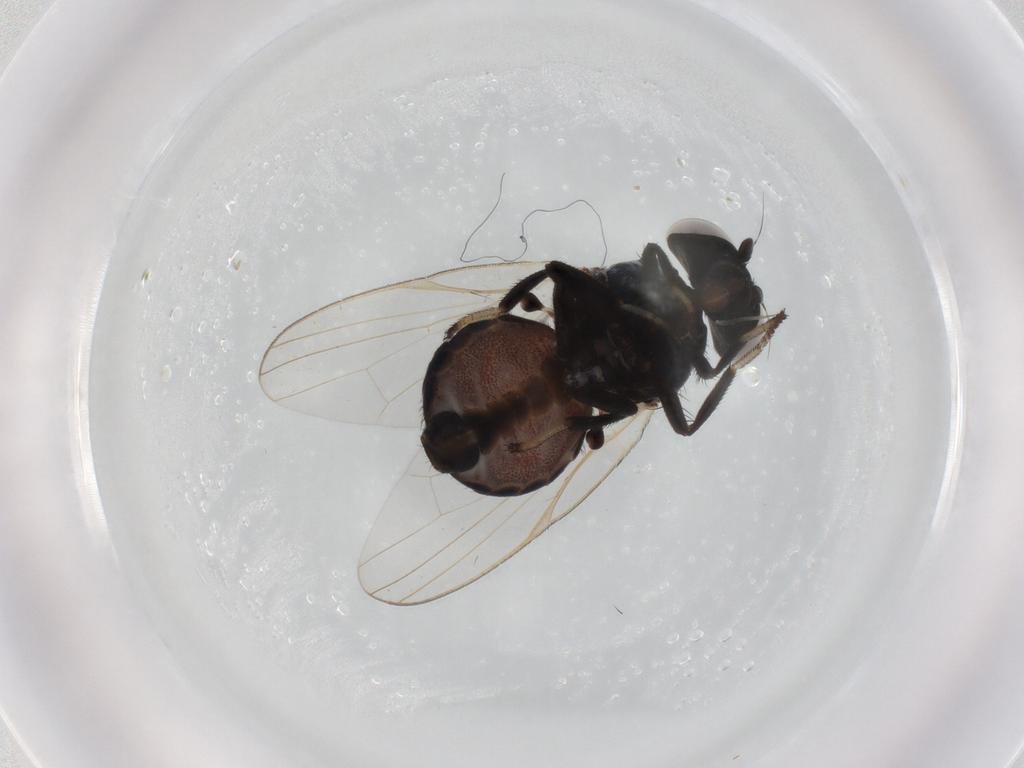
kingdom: Animalia
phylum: Arthropoda
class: Insecta
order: Diptera
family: Lonchaeidae
